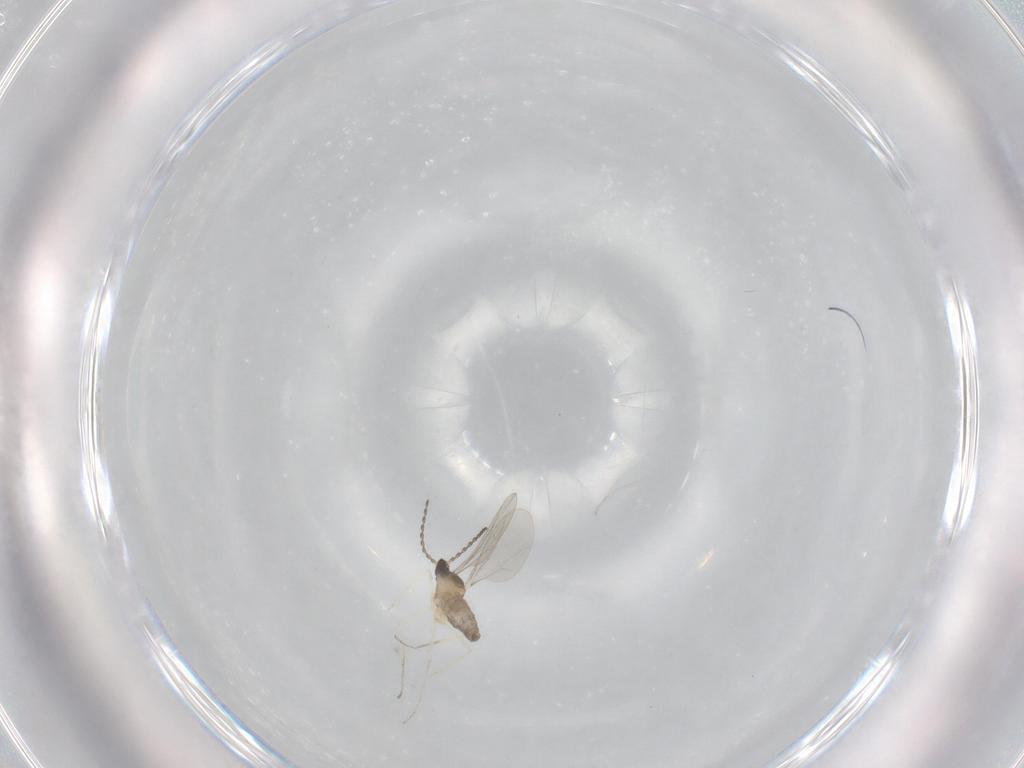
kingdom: Animalia
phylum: Arthropoda
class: Insecta
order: Diptera
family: Cecidomyiidae
